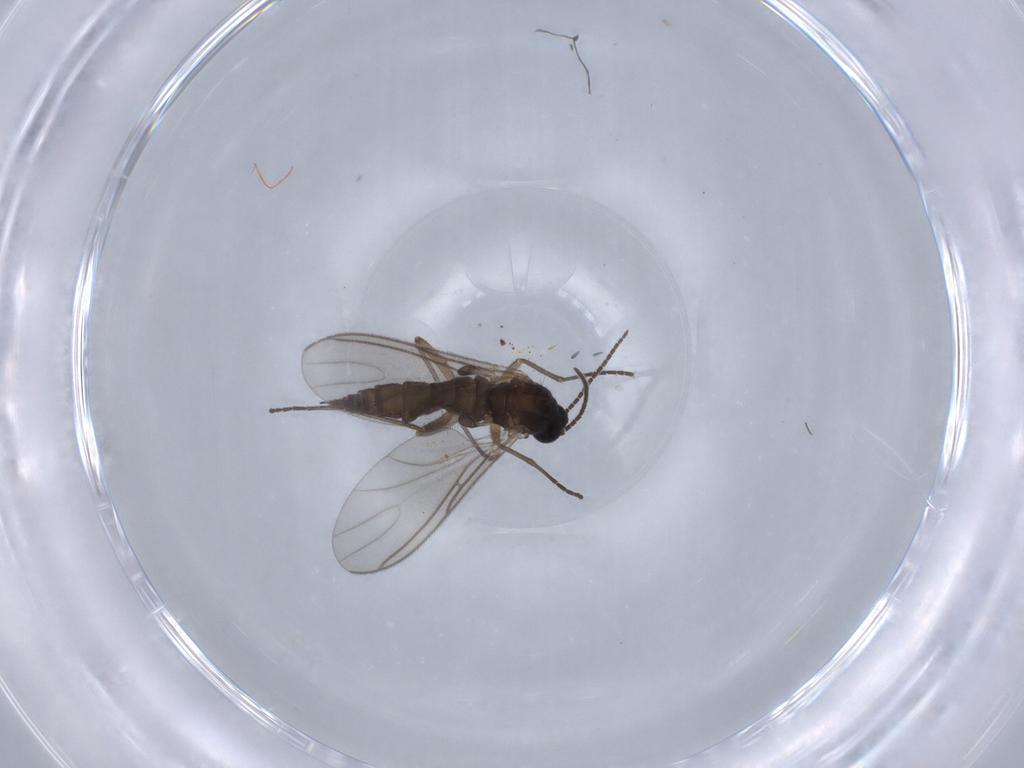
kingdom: Animalia
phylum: Arthropoda
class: Insecta
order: Diptera
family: Sciaridae
